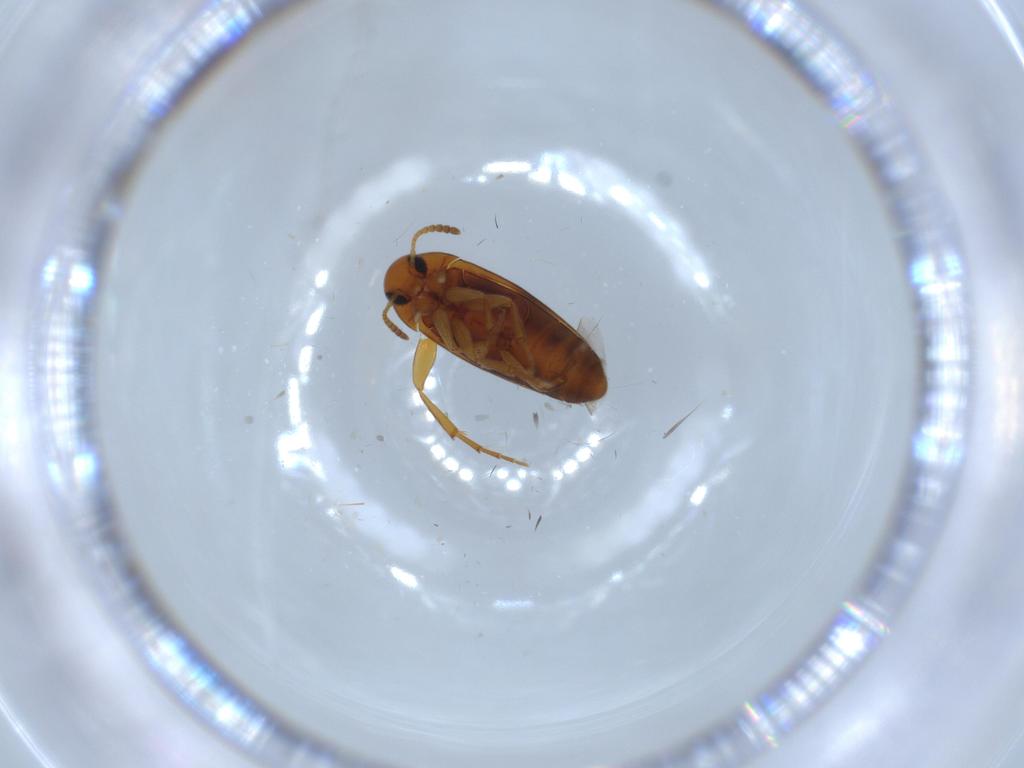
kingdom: Animalia
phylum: Arthropoda
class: Insecta
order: Coleoptera
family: Scraptiidae
